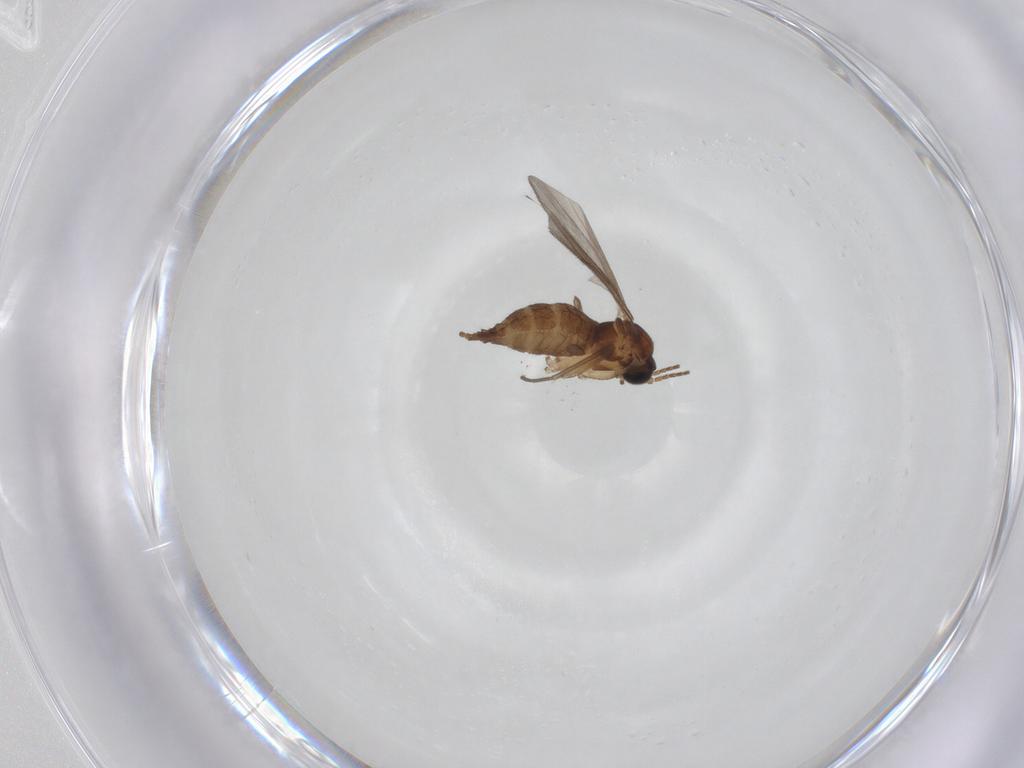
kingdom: Animalia
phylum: Arthropoda
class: Insecta
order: Diptera
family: Sciaridae
